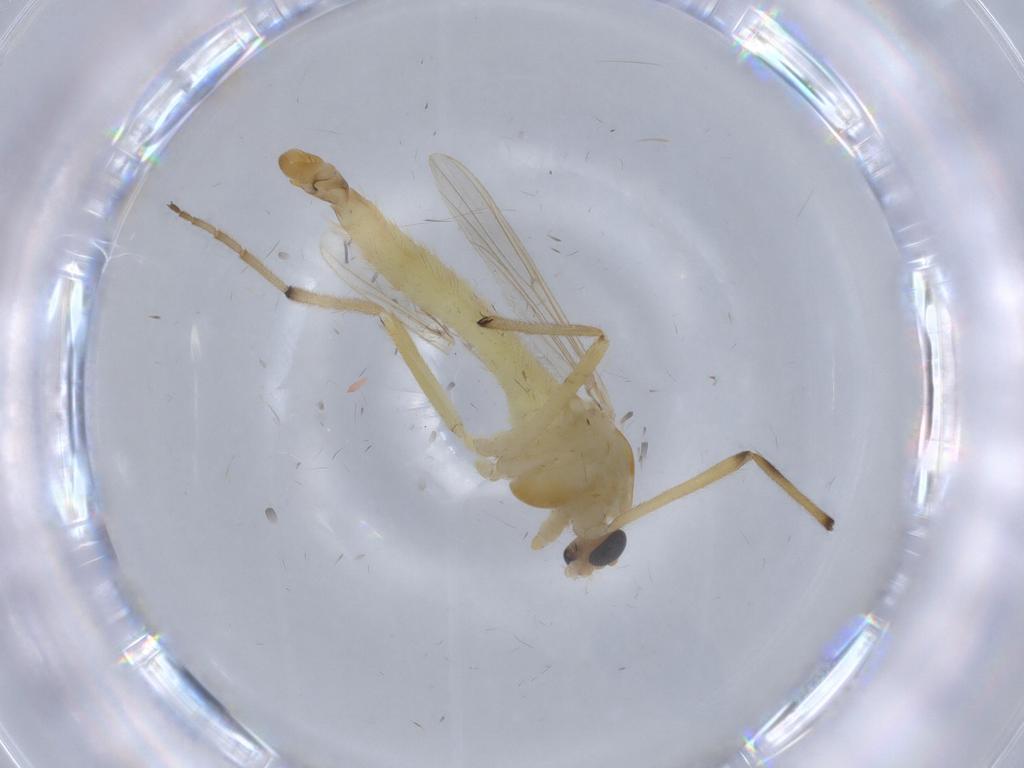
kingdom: Animalia
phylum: Arthropoda
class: Insecta
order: Diptera
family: Hybotidae
